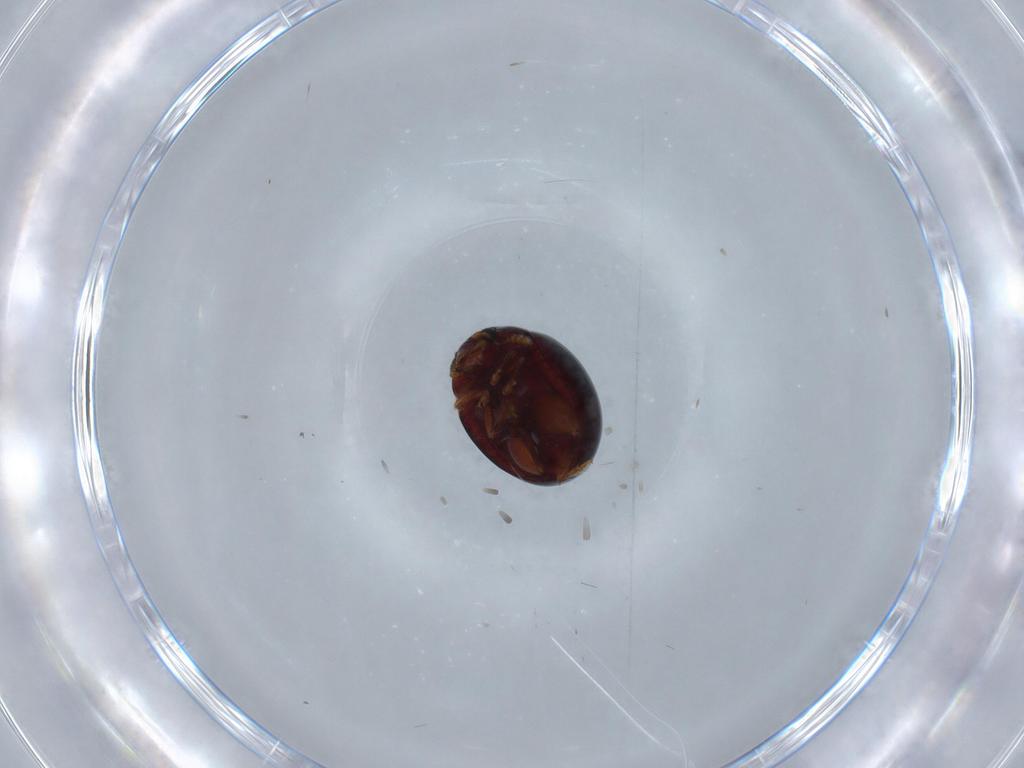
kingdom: Animalia
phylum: Arthropoda
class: Insecta
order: Coleoptera
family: Chrysomelidae
